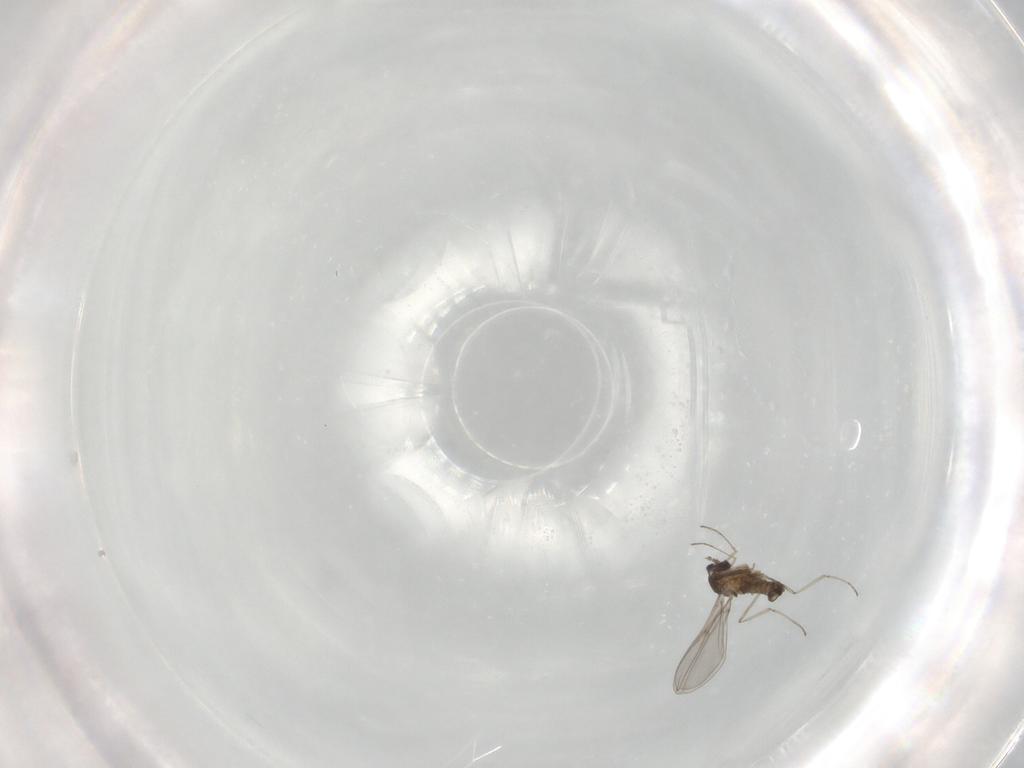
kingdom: Animalia
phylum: Arthropoda
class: Insecta
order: Diptera
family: Cecidomyiidae
